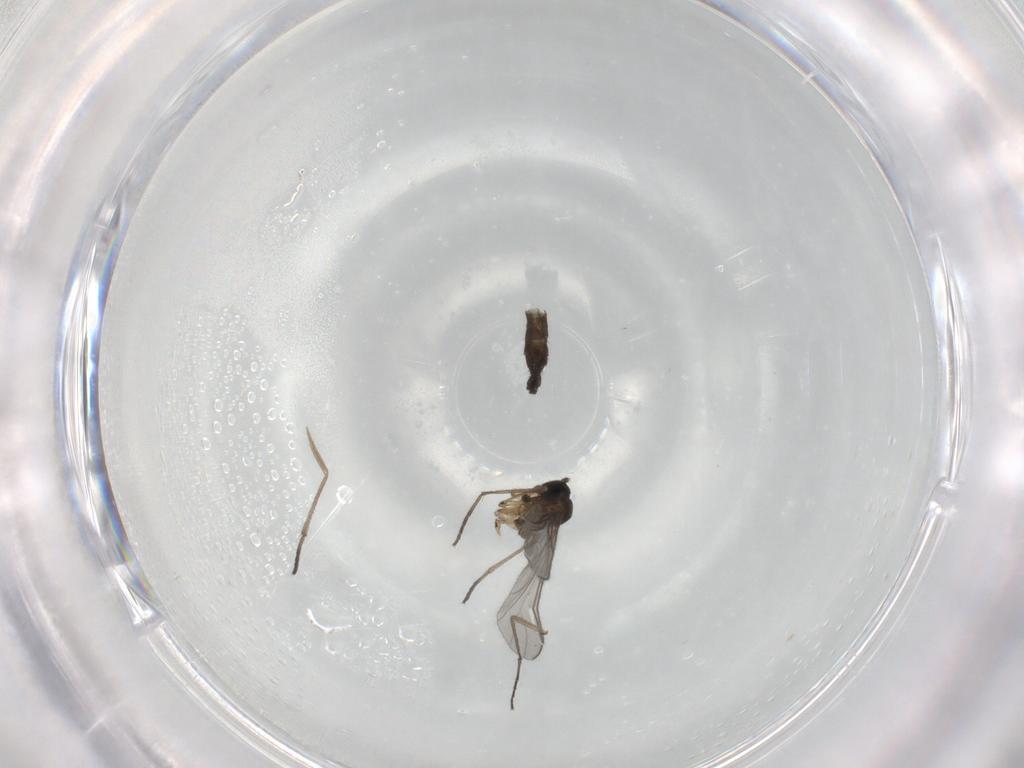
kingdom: Animalia
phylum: Arthropoda
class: Insecta
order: Diptera
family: Sciaridae
